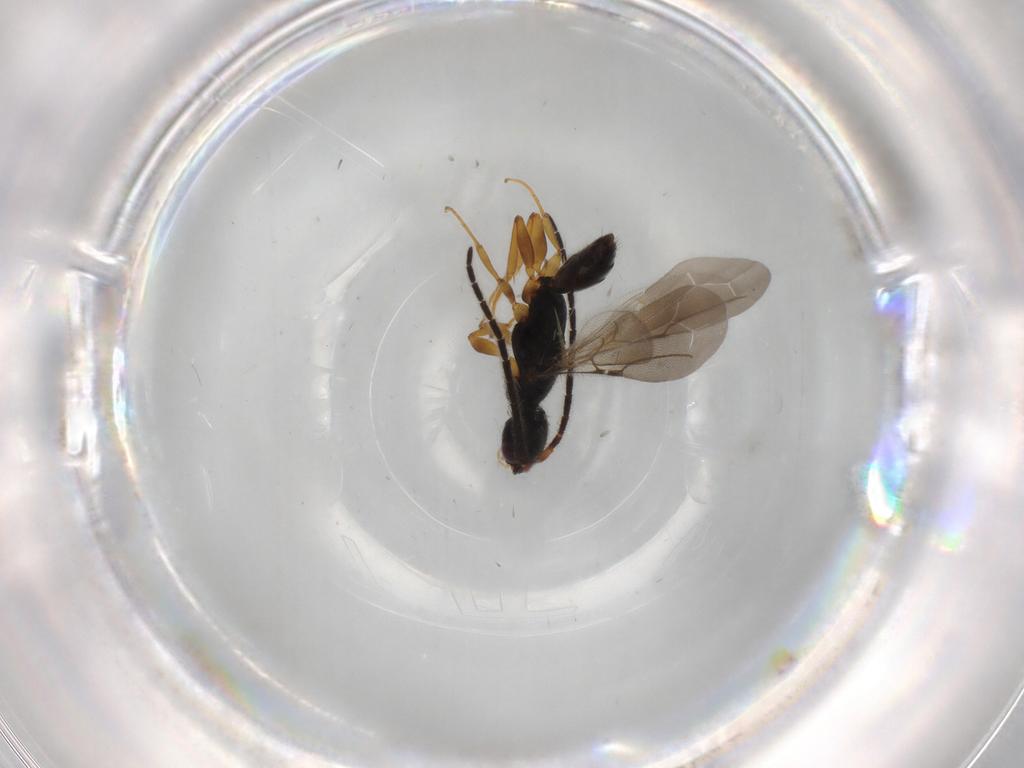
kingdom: Animalia
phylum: Arthropoda
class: Insecta
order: Hymenoptera
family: Bethylidae
